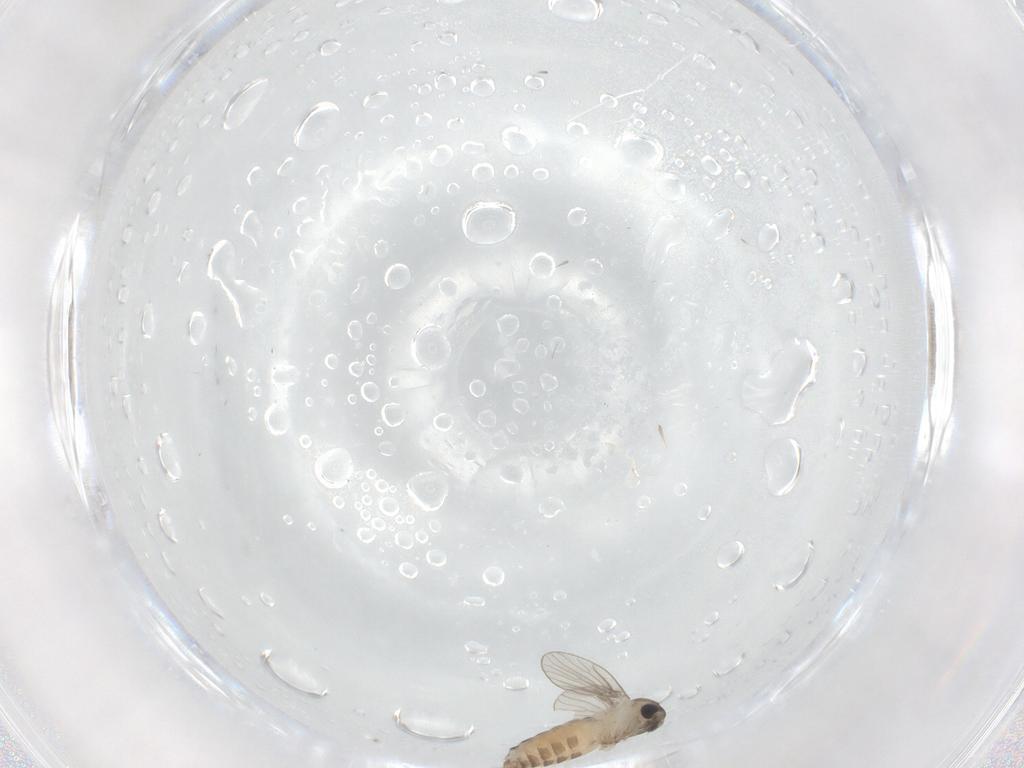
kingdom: Animalia
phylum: Arthropoda
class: Insecta
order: Diptera
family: Psychodidae
